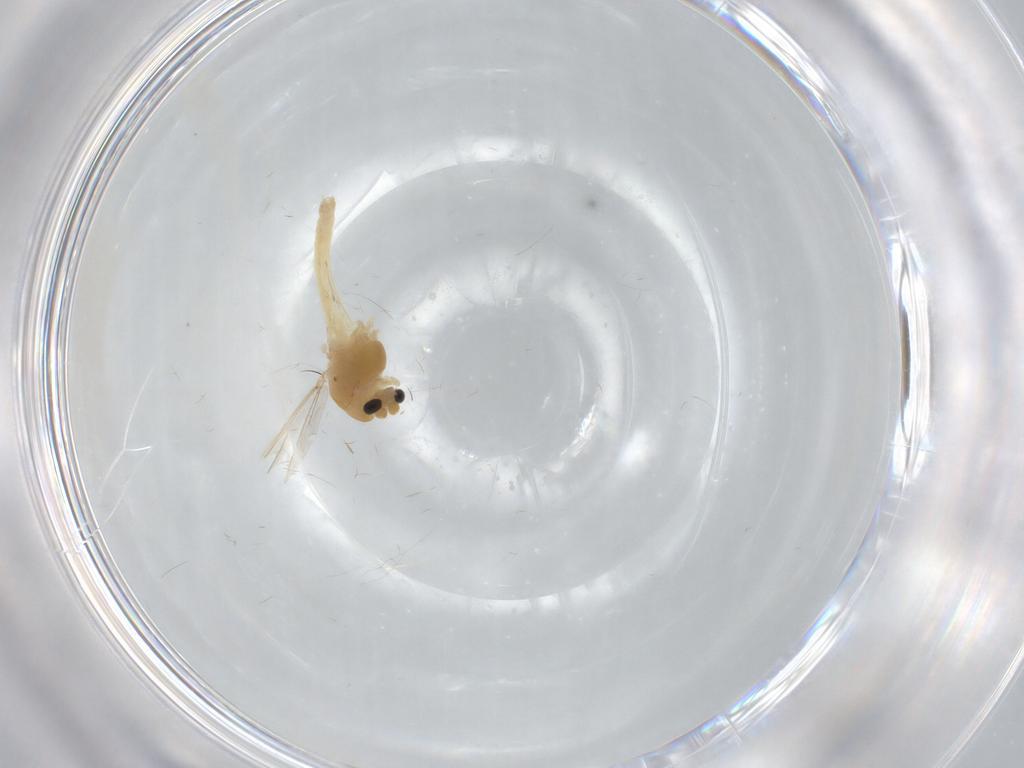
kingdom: Animalia
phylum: Arthropoda
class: Insecta
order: Diptera
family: Chironomidae
